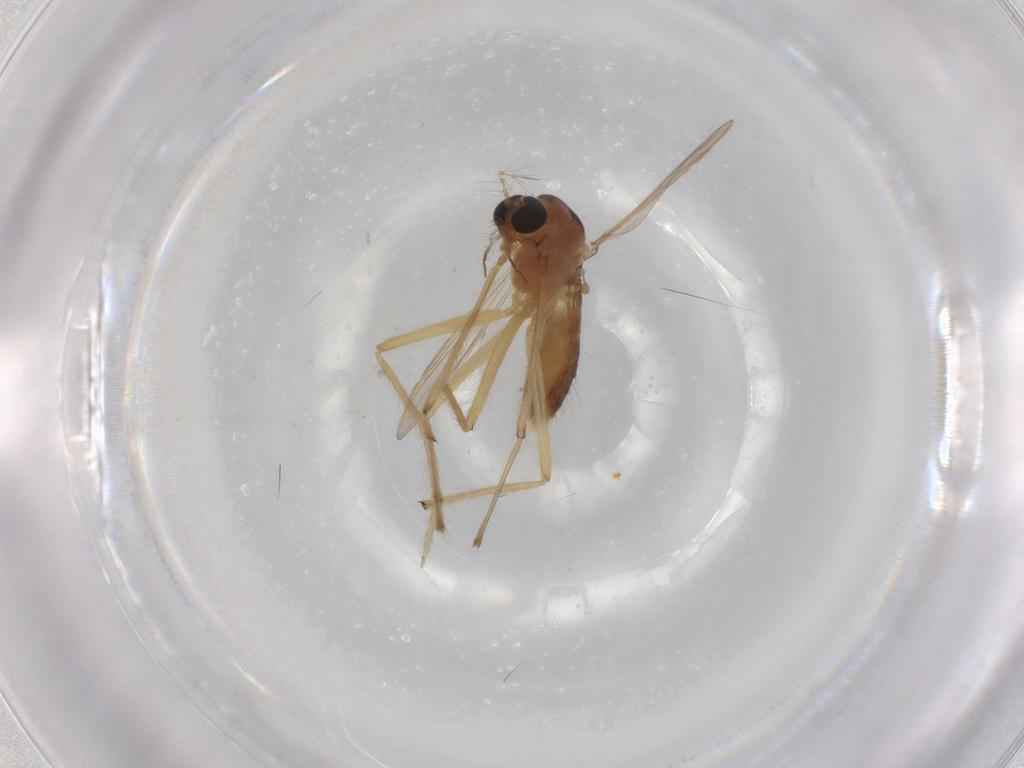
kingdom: Animalia
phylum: Arthropoda
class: Insecta
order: Diptera
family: Chironomidae
